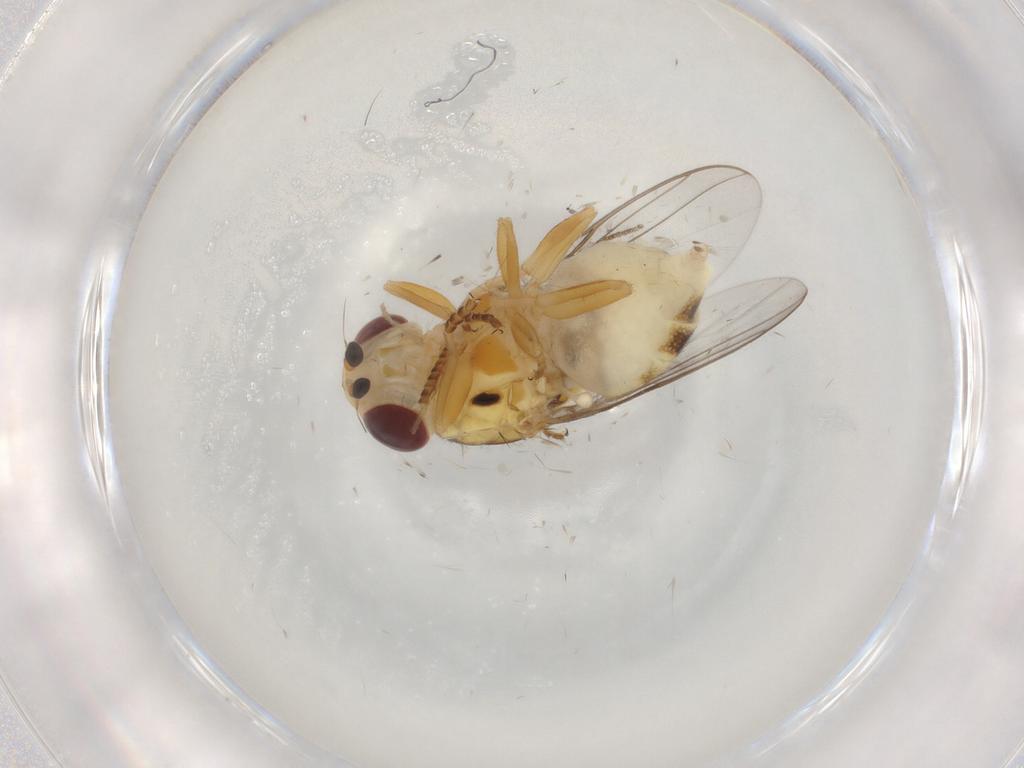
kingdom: Animalia
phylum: Arthropoda
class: Insecta
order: Diptera
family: Chloropidae
